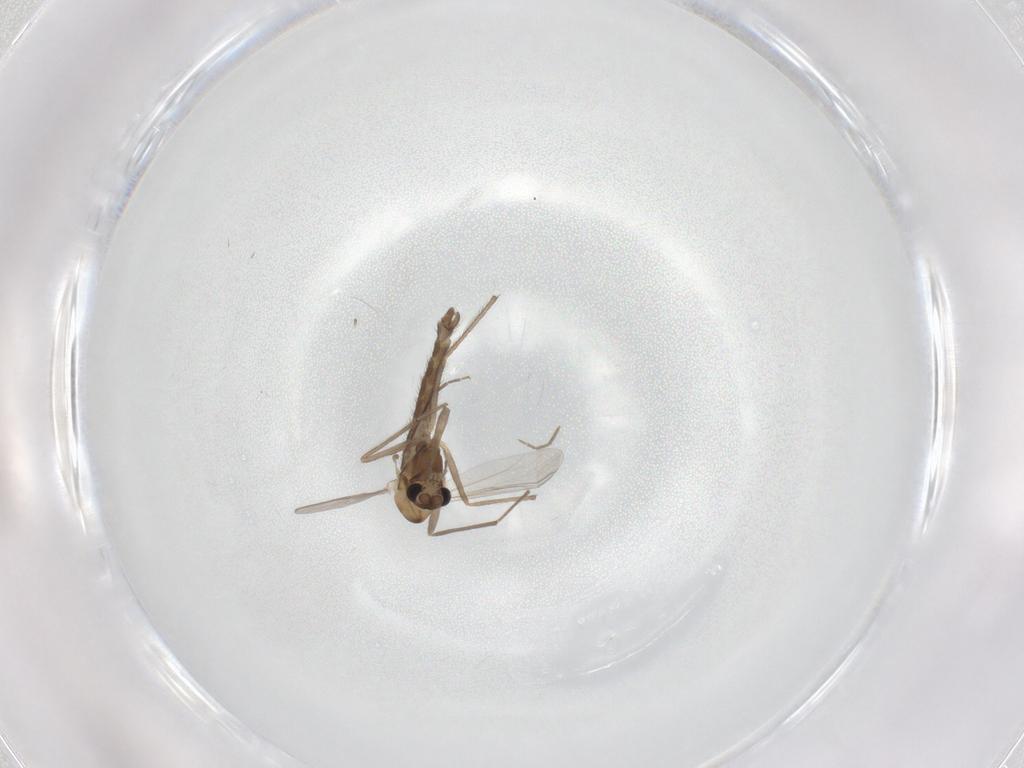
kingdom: Animalia
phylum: Arthropoda
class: Insecta
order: Diptera
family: Chironomidae
